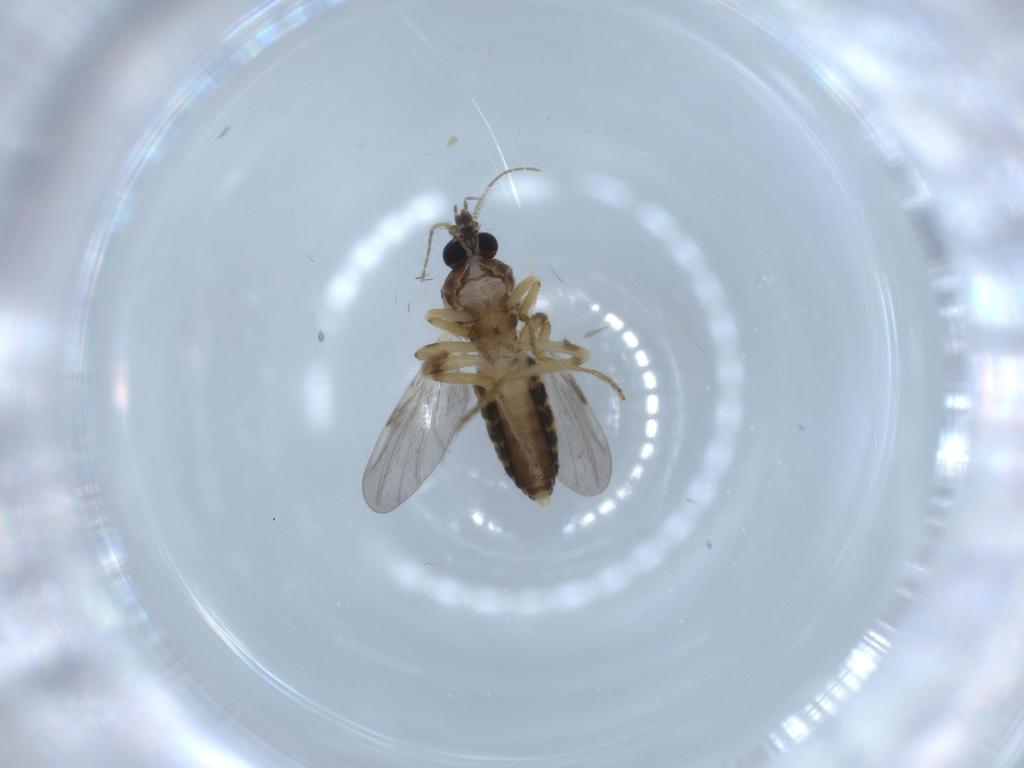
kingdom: Animalia
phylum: Arthropoda
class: Insecta
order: Diptera
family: Ceratopogonidae
